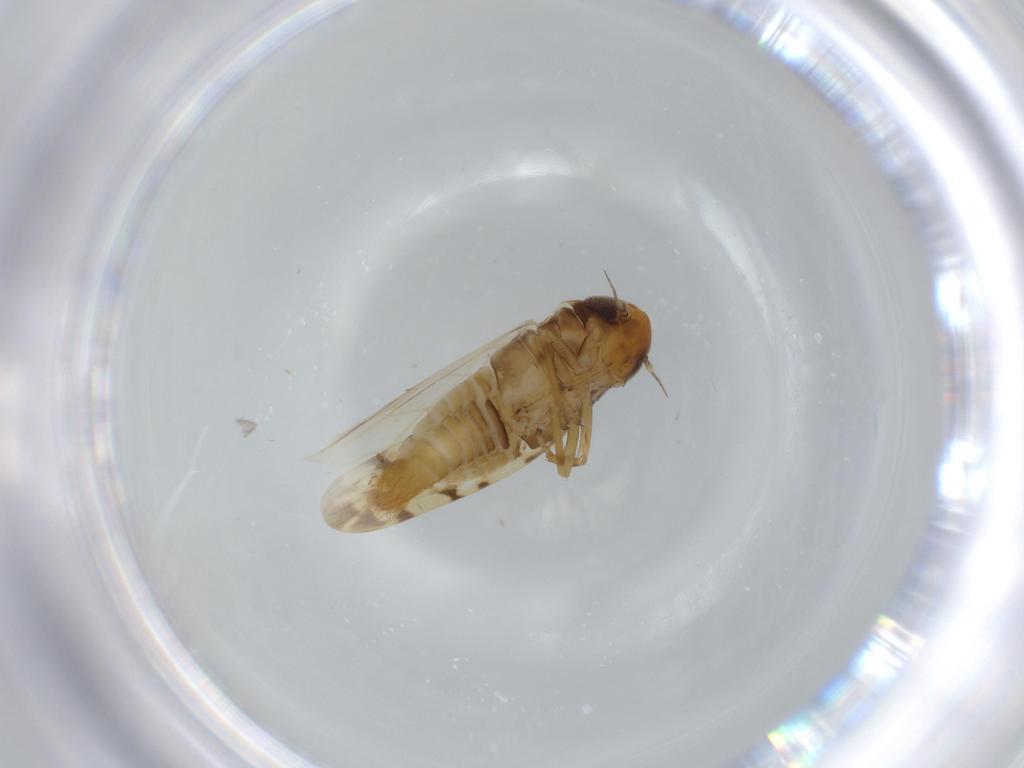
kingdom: Animalia
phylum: Arthropoda
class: Insecta
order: Hemiptera
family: Cicadellidae
